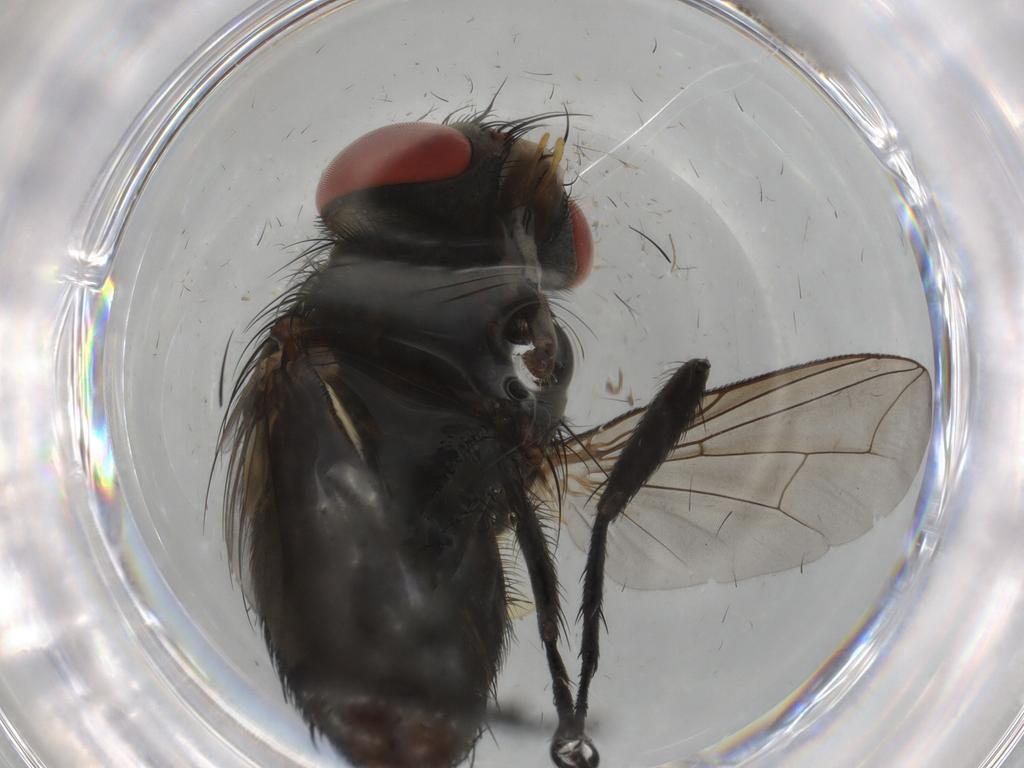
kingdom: Animalia
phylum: Arthropoda
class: Insecta
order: Diptera
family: Sarcophagidae
